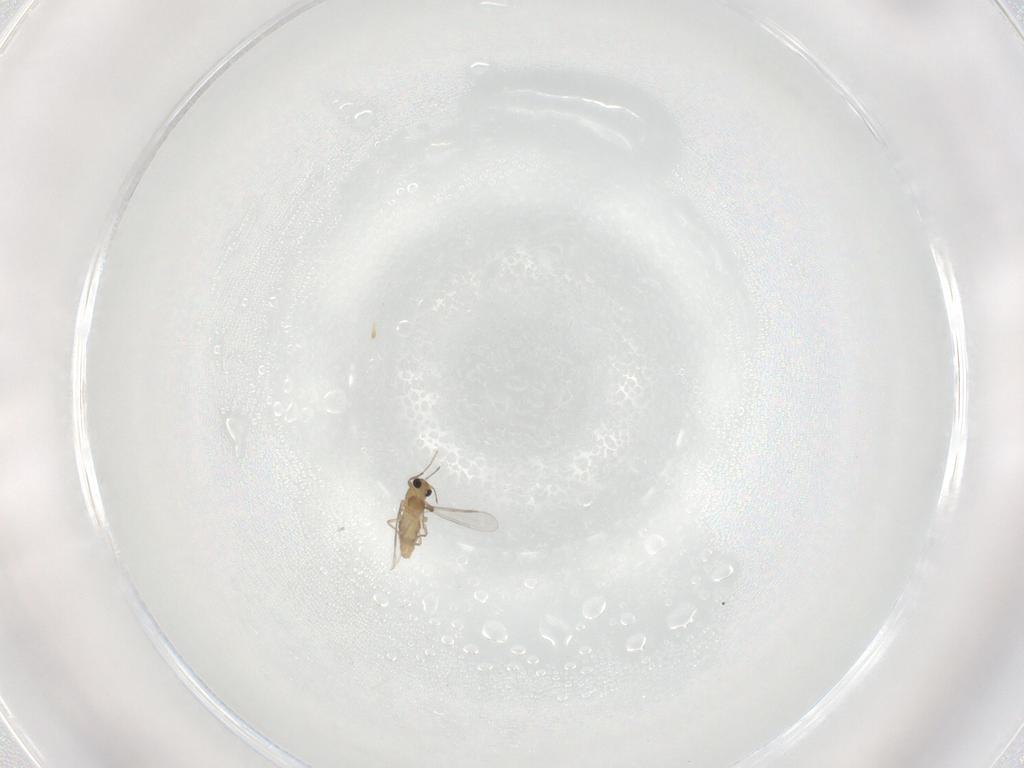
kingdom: Animalia
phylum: Arthropoda
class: Insecta
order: Diptera
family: Chironomidae
